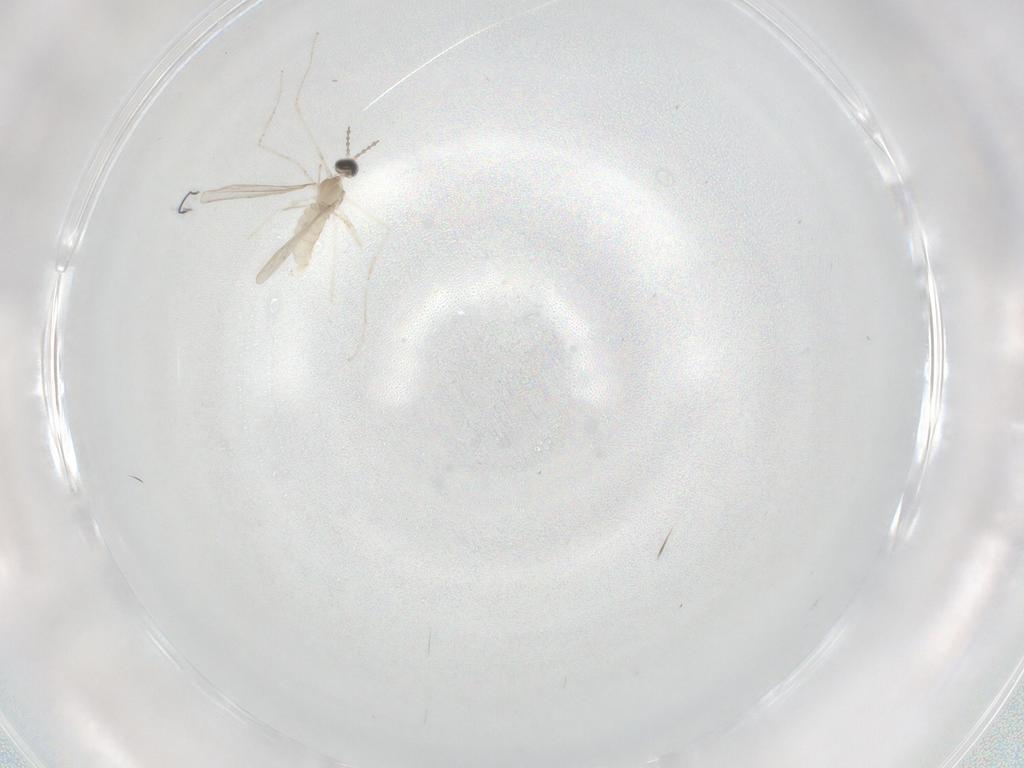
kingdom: Animalia
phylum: Arthropoda
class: Insecta
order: Diptera
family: Cecidomyiidae
